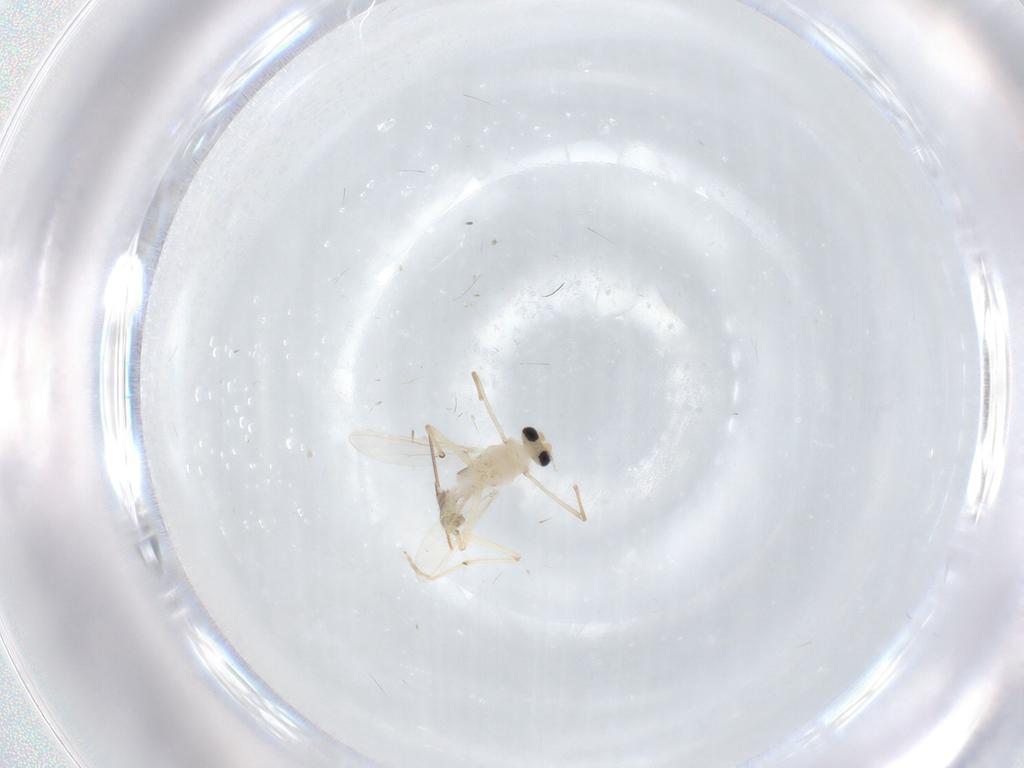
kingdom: Animalia
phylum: Arthropoda
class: Insecta
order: Diptera
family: Chironomidae
